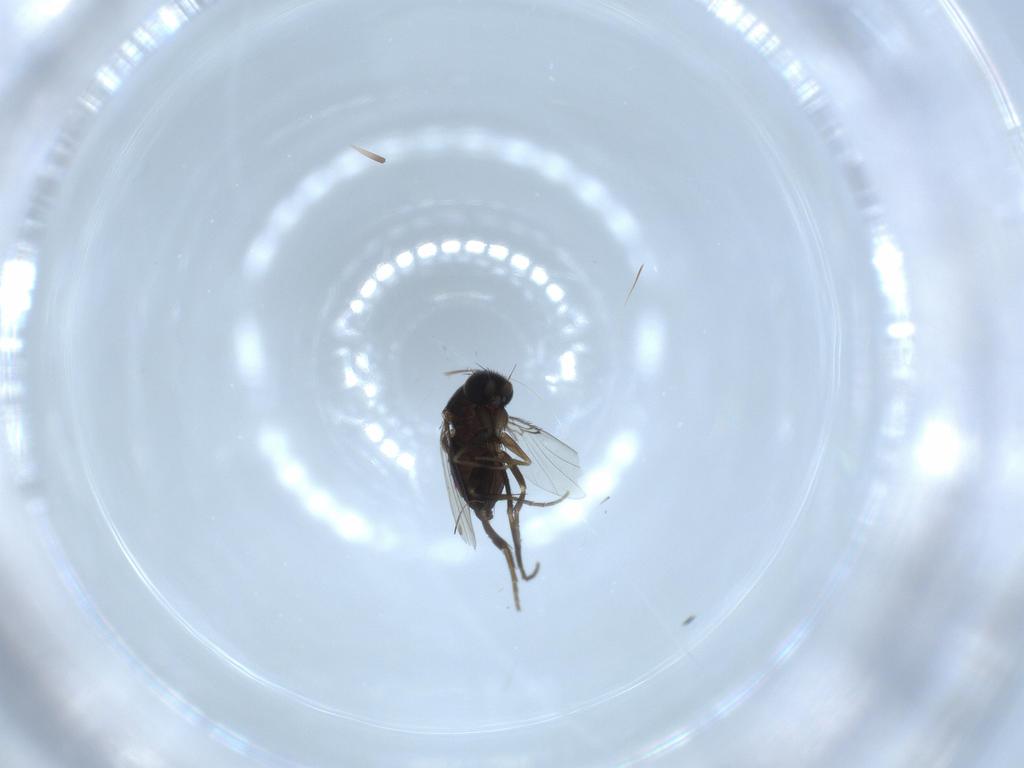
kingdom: Animalia
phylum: Arthropoda
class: Insecta
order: Diptera
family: Phoridae
